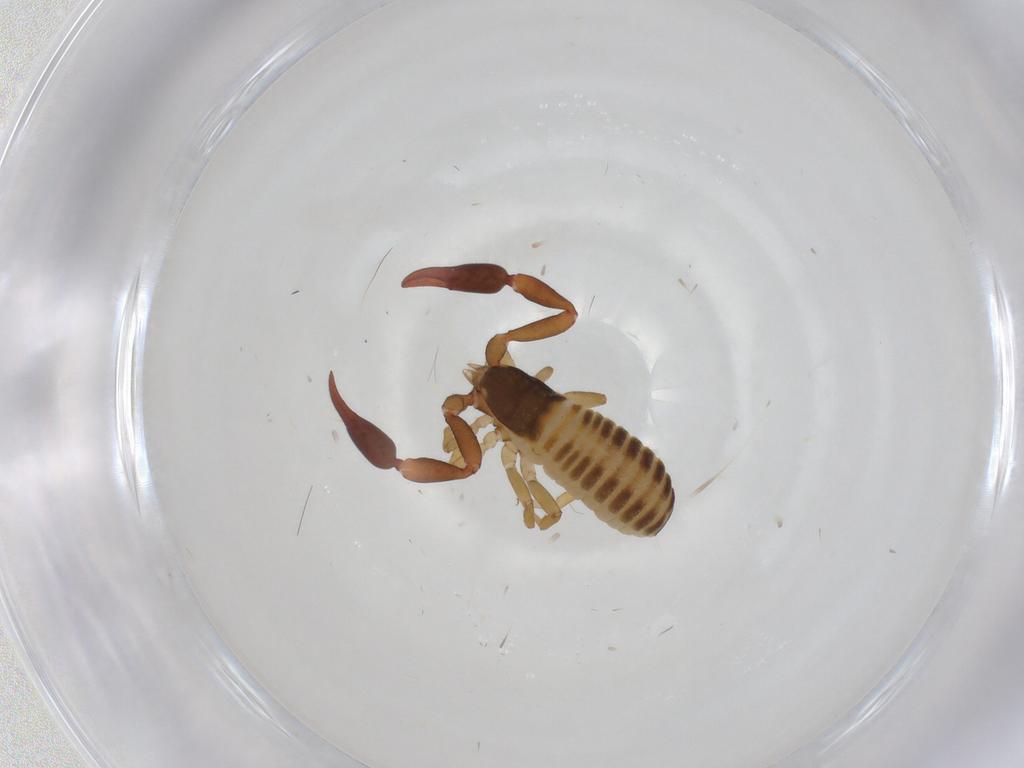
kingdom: Animalia
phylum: Arthropoda
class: Arachnida
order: Pseudoscorpiones
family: Withiidae
